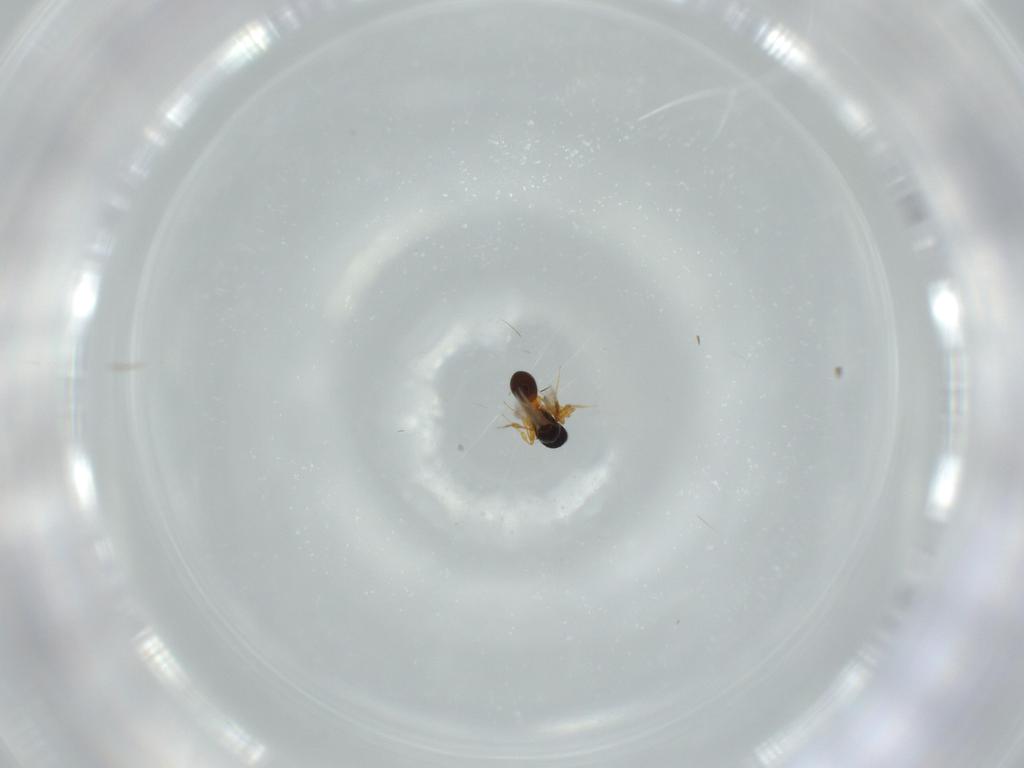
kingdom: Animalia
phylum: Arthropoda
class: Insecta
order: Hymenoptera
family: Platygastridae
